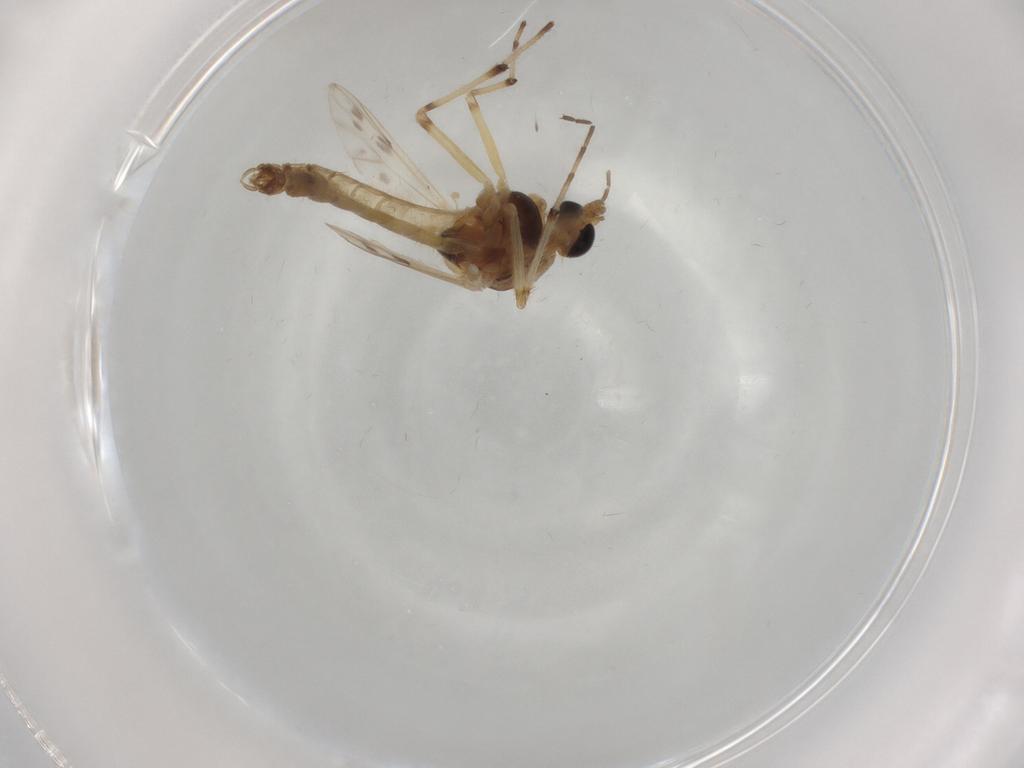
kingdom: Animalia
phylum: Arthropoda
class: Insecta
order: Diptera
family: Chironomidae
